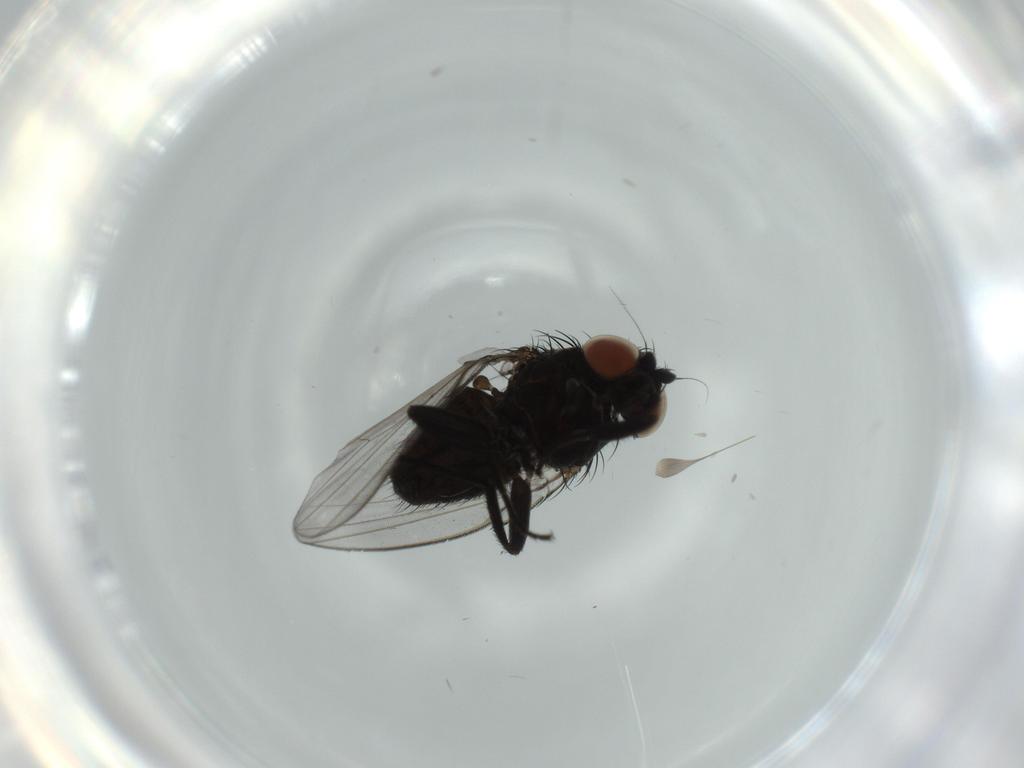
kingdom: Animalia
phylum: Arthropoda
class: Insecta
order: Diptera
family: Milichiidae
